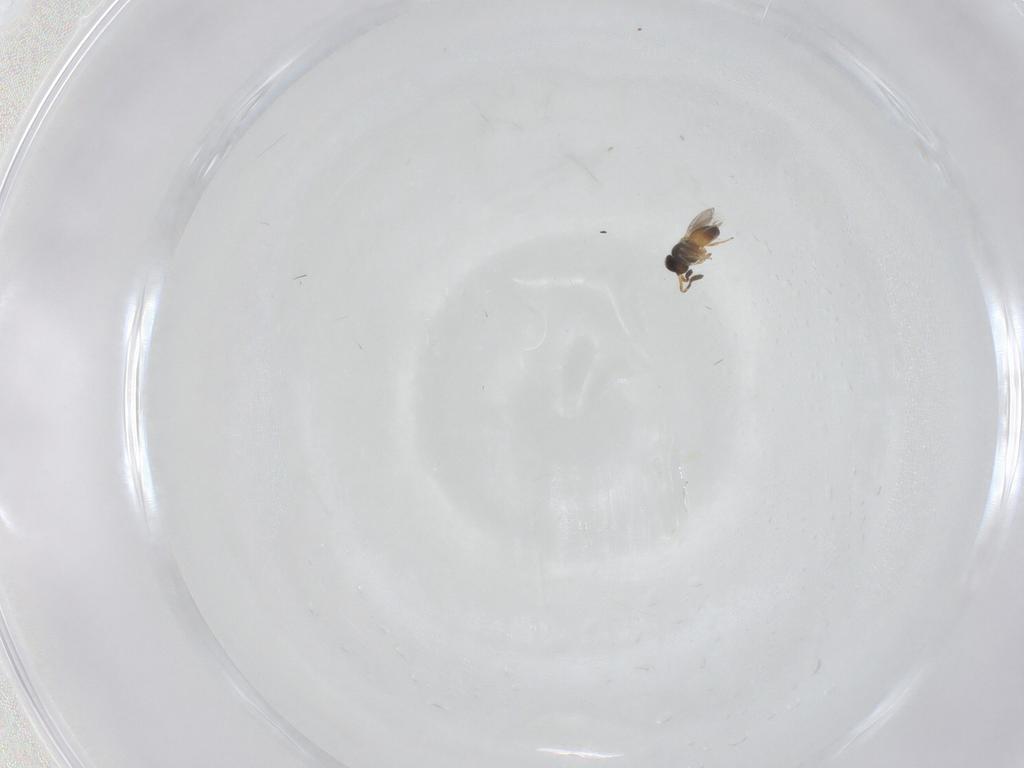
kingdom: Animalia
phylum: Arthropoda
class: Insecta
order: Hymenoptera
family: Scelionidae
